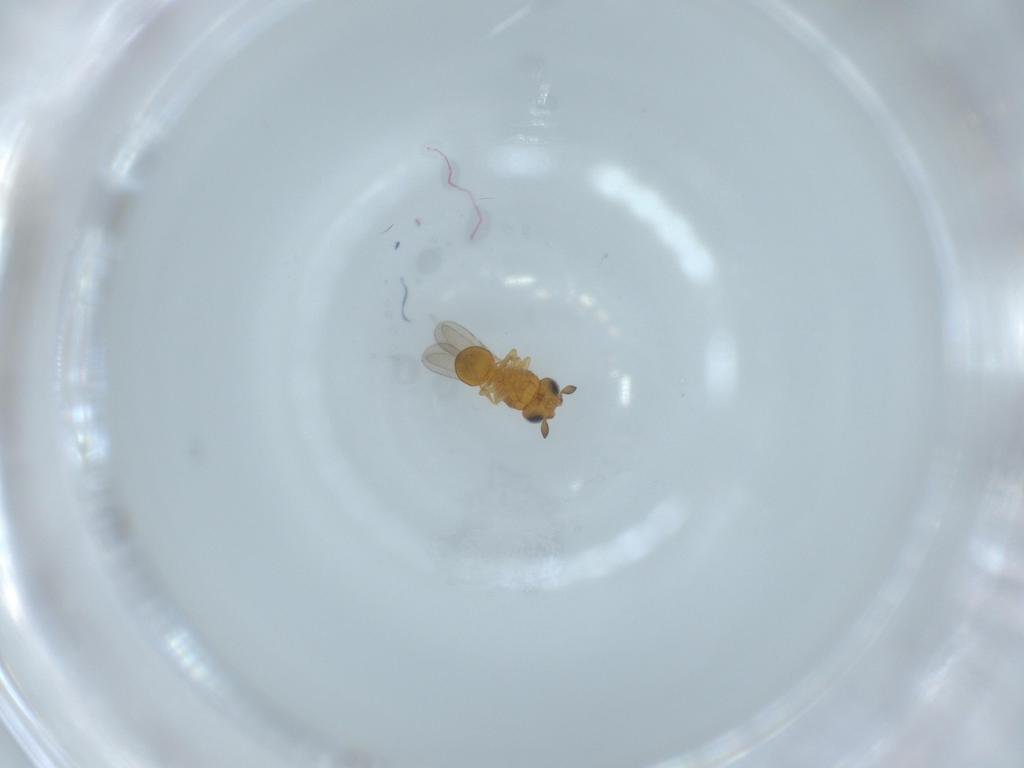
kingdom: Animalia
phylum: Arthropoda
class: Insecta
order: Hymenoptera
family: Scelionidae
